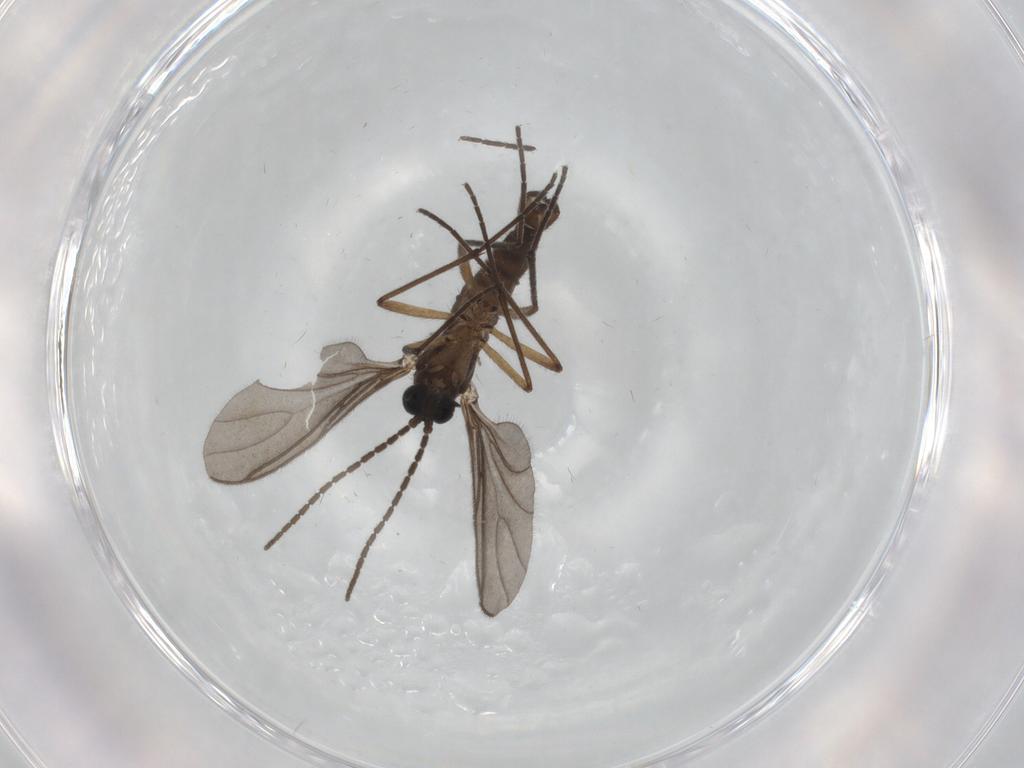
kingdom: Animalia
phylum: Arthropoda
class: Insecta
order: Diptera
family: Sciaridae
